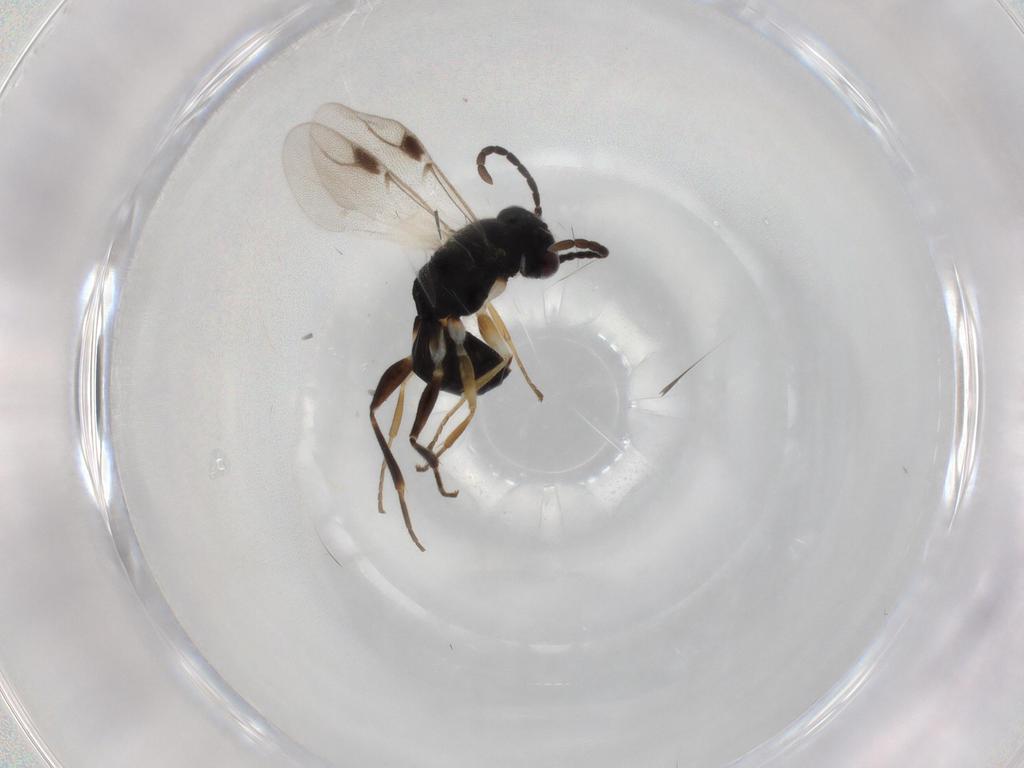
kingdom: Animalia
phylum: Arthropoda
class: Insecta
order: Hymenoptera
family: Dryinidae
